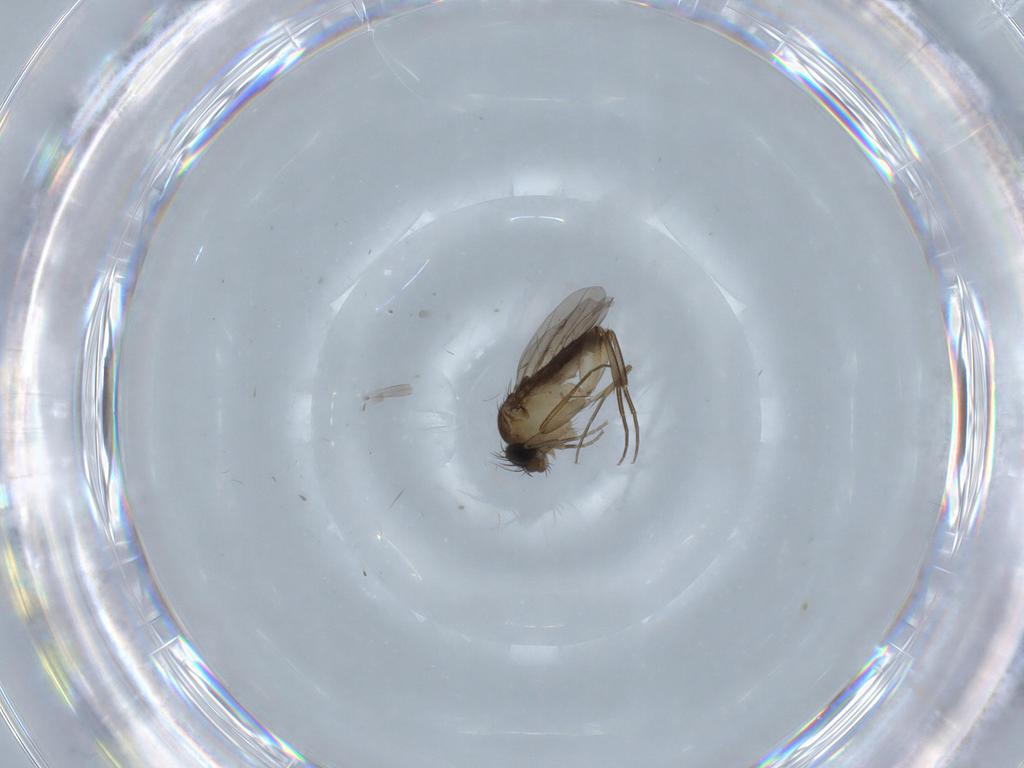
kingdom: Animalia
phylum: Arthropoda
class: Insecta
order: Diptera
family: Phoridae
